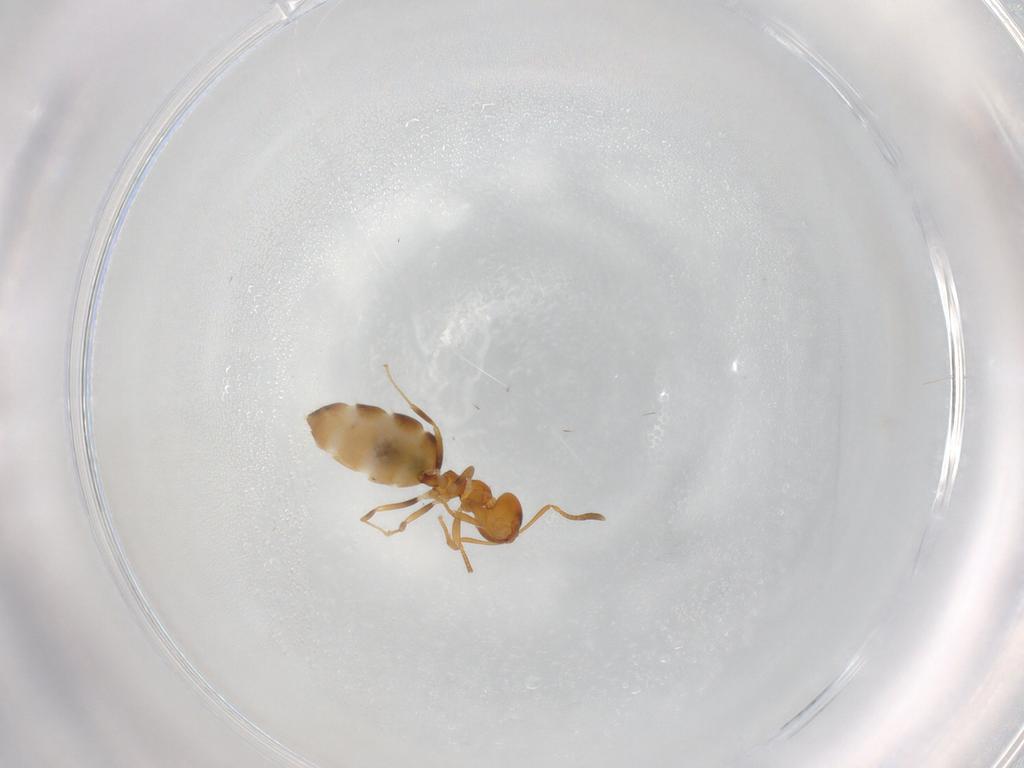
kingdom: Animalia
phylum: Arthropoda
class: Insecta
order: Hymenoptera
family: Formicidae
